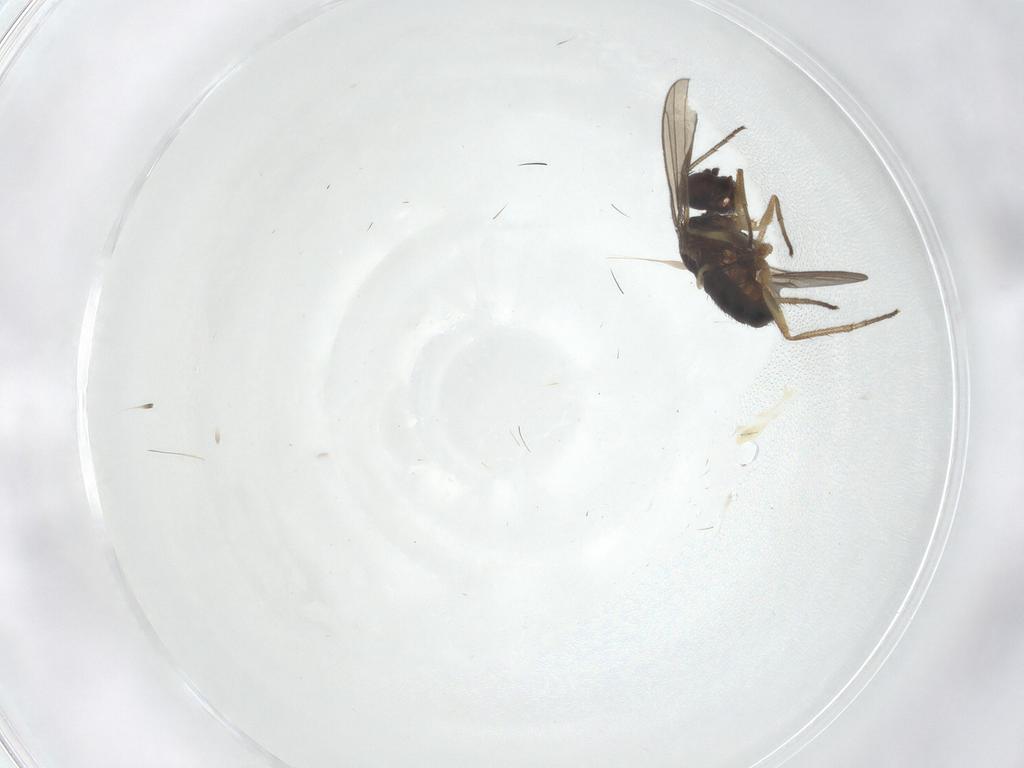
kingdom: Animalia
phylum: Arthropoda
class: Insecta
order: Diptera
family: Dolichopodidae
